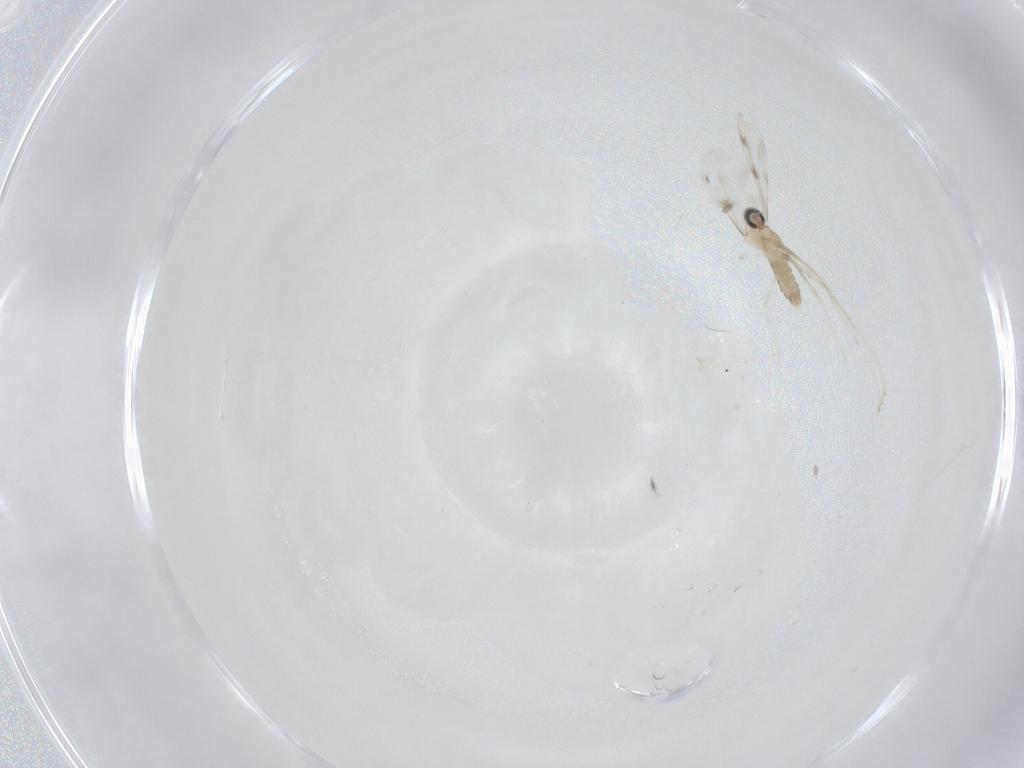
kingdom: Animalia
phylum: Arthropoda
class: Insecta
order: Diptera
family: Cecidomyiidae
